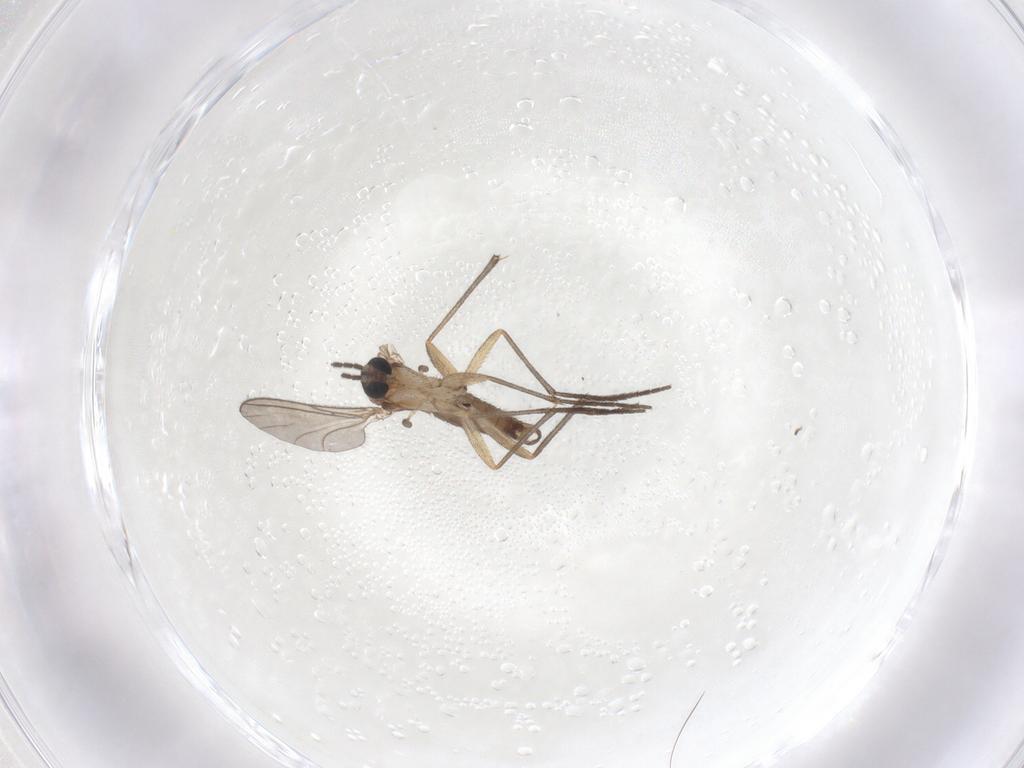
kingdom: Animalia
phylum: Arthropoda
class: Insecta
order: Diptera
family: Sciaridae
